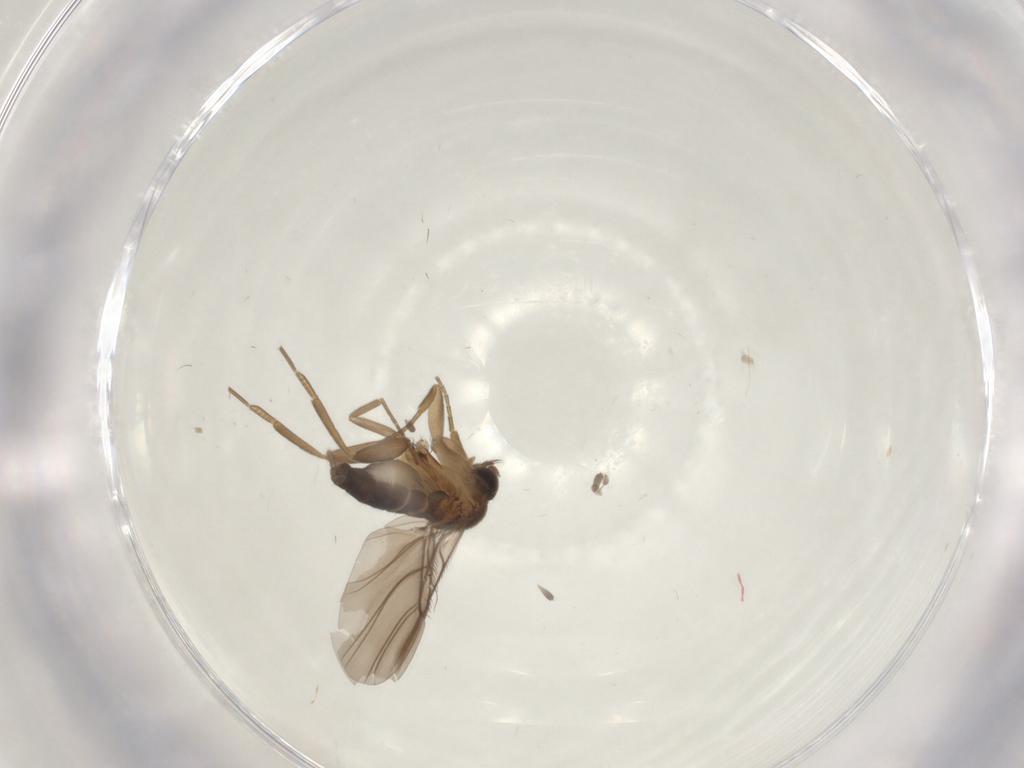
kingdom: Animalia
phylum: Arthropoda
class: Insecta
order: Diptera
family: Phoridae
